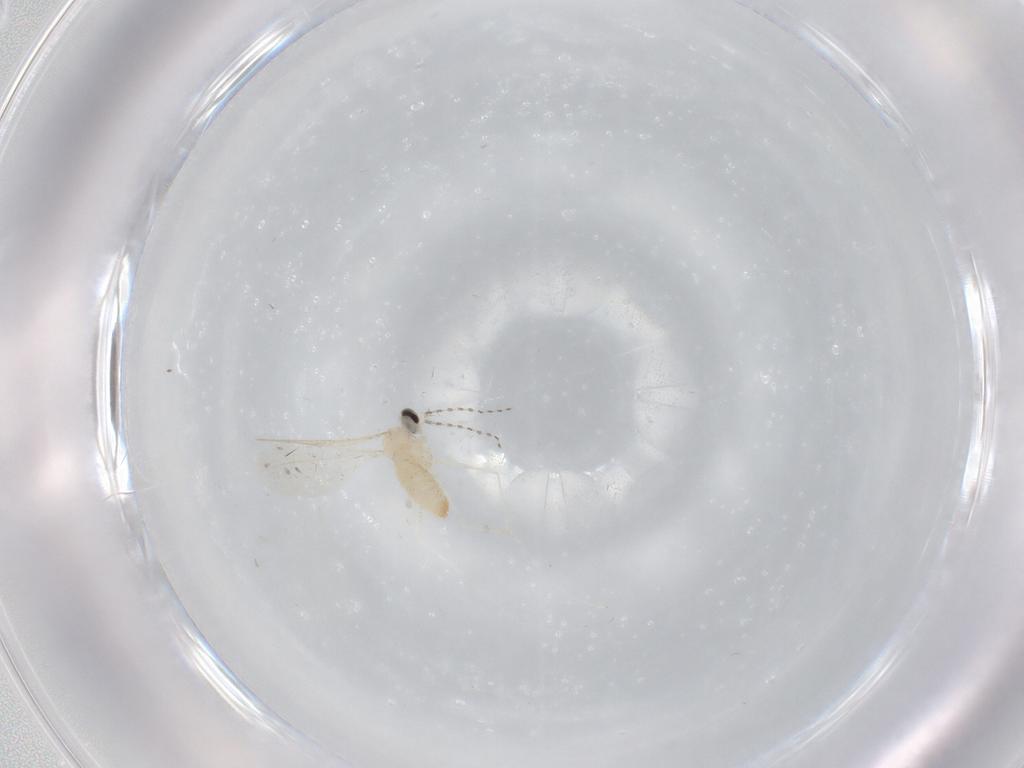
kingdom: Animalia
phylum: Arthropoda
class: Insecta
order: Diptera
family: Cecidomyiidae
